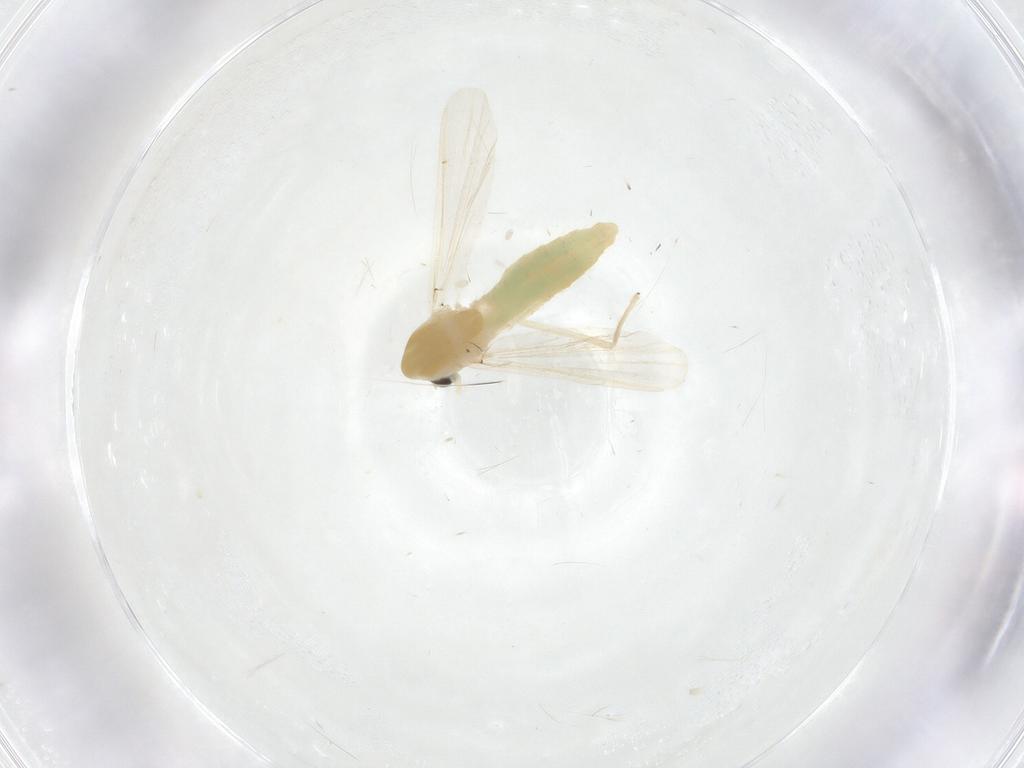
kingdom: Animalia
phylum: Arthropoda
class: Insecta
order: Diptera
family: Chironomidae
